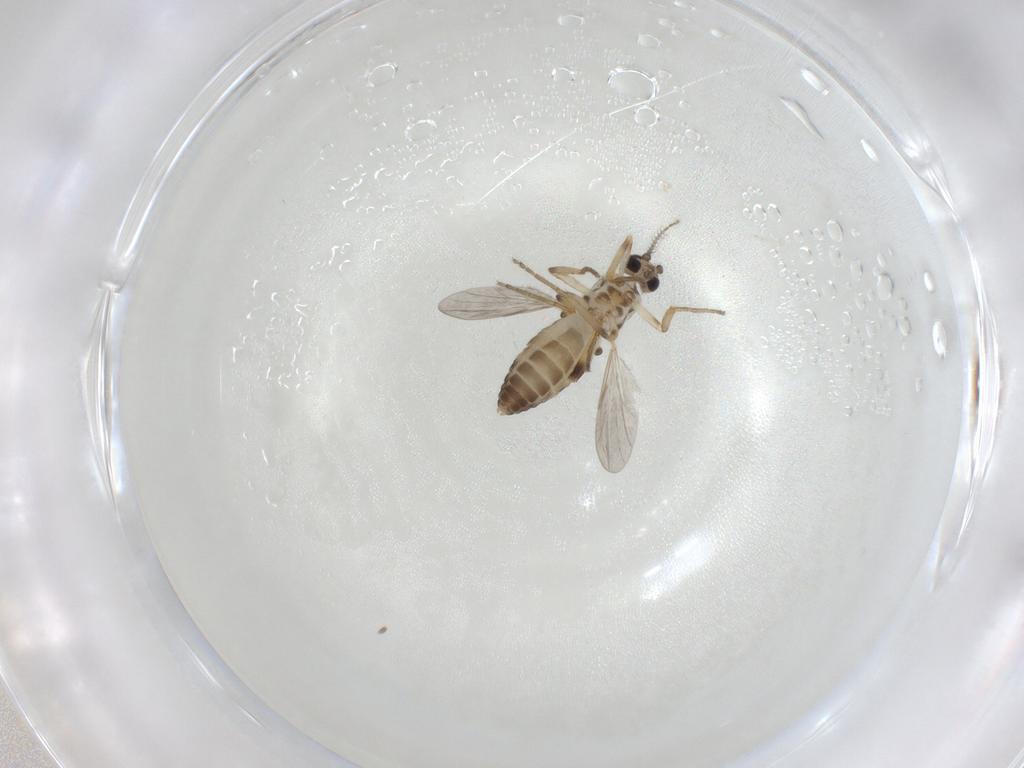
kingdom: Animalia
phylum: Arthropoda
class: Insecta
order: Diptera
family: Ceratopogonidae
